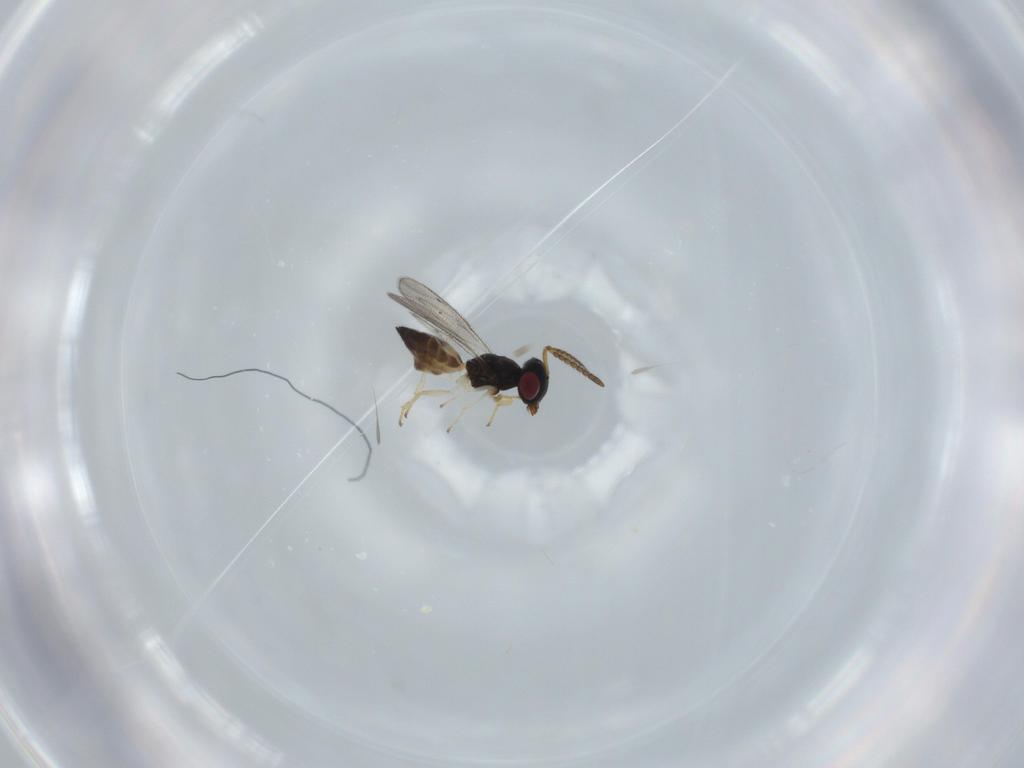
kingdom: Animalia
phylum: Arthropoda
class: Insecta
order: Hymenoptera
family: Pteromalidae
